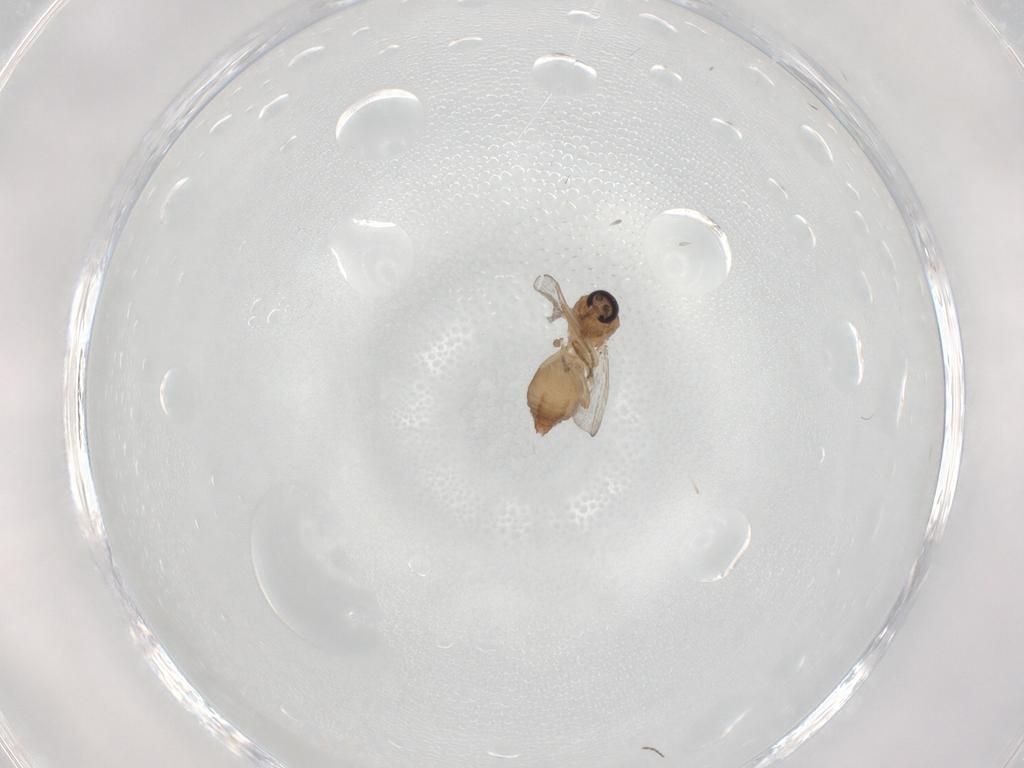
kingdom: Animalia
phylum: Arthropoda
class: Insecta
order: Diptera
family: Ceratopogonidae
